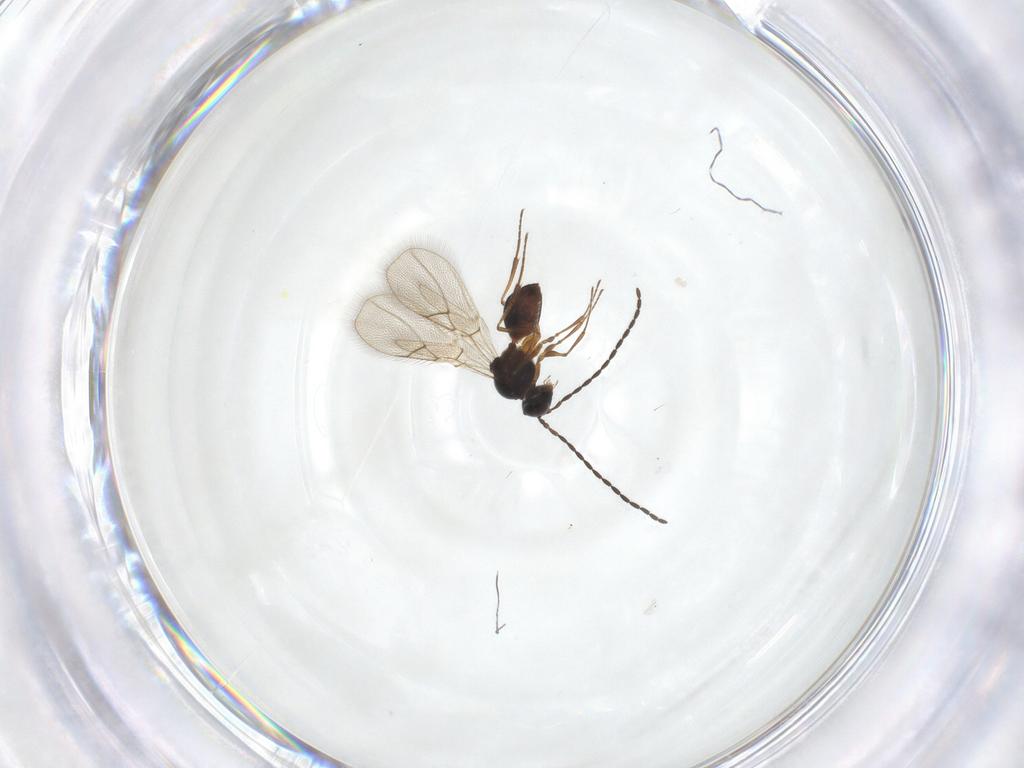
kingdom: Animalia
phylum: Arthropoda
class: Insecta
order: Hymenoptera
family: Figitidae
